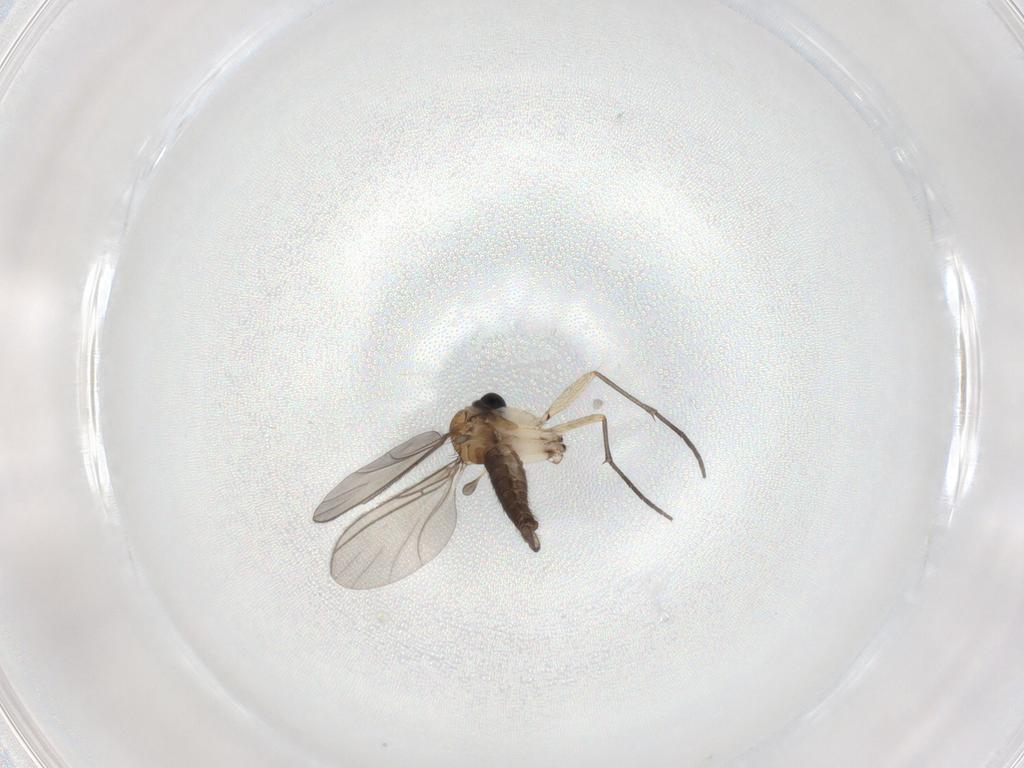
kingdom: Animalia
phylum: Arthropoda
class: Insecta
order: Diptera
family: Sciaridae
